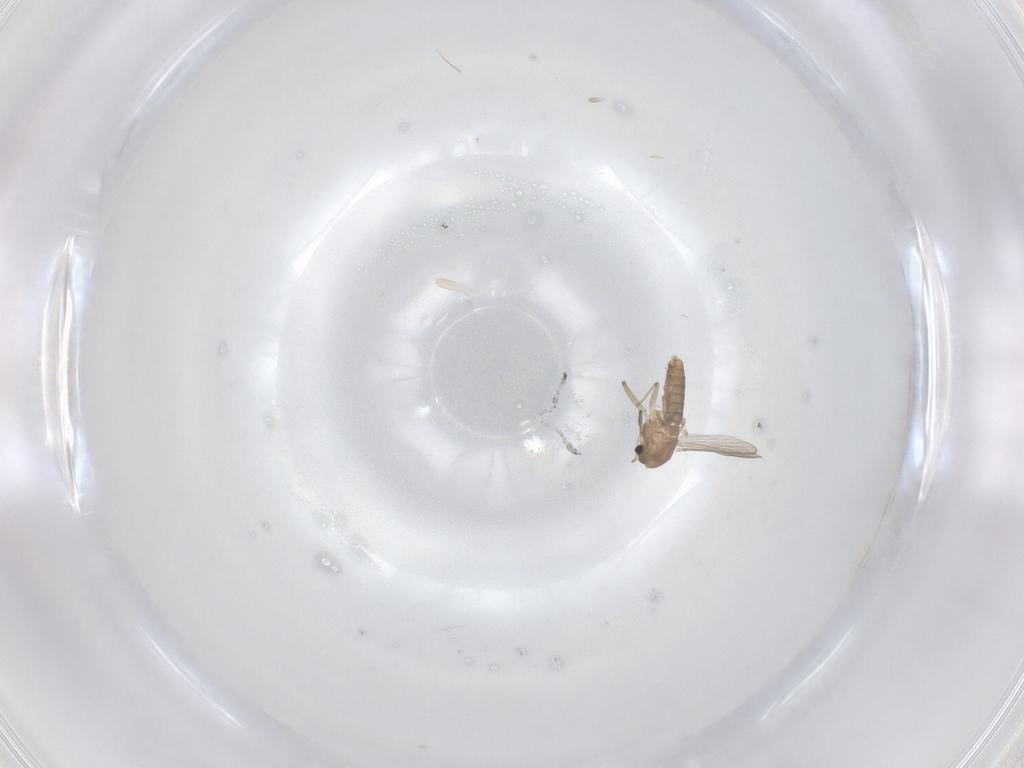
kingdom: Animalia
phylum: Arthropoda
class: Insecta
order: Diptera
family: Chironomidae
